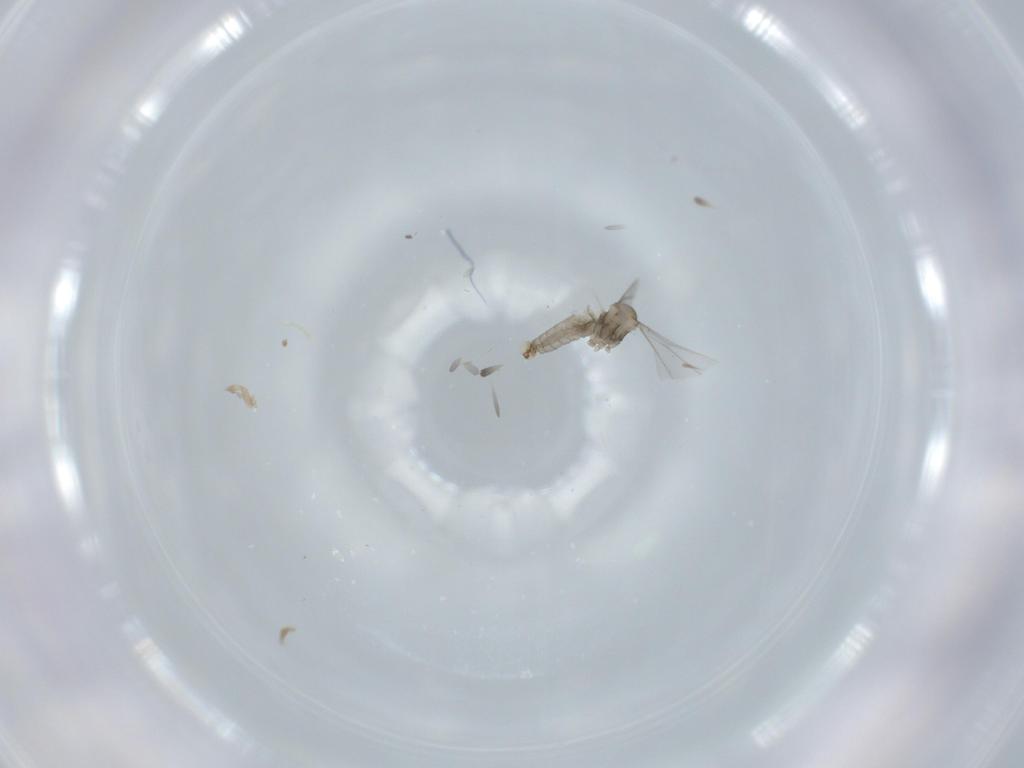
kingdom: Animalia
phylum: Arthropoda
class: Insecta
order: Diptera
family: Cecidomyiidae
